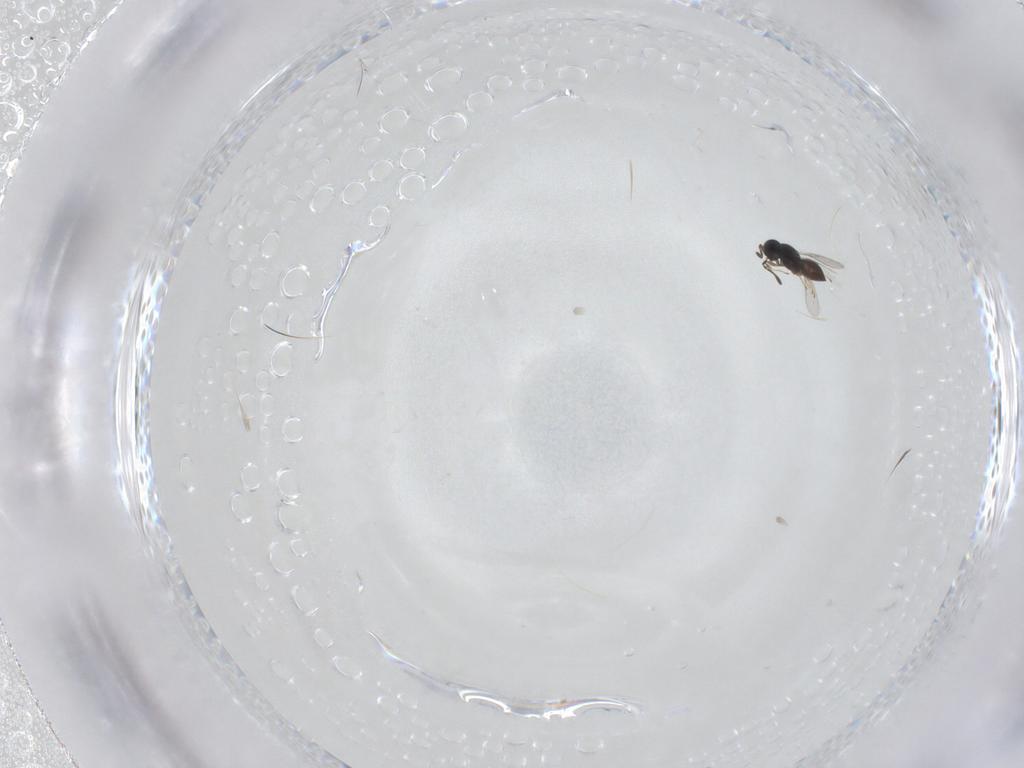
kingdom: Animalia
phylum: Arthropoda
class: Insecta
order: Hymenoptera
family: Scelionidae
